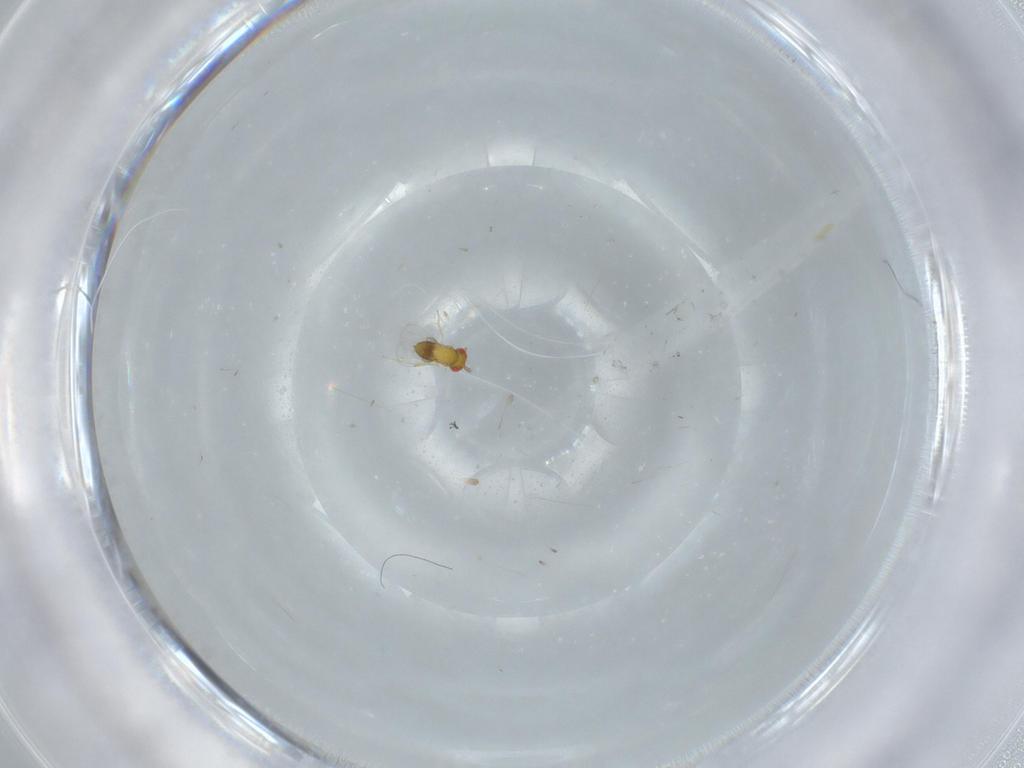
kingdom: Animalia
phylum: Arthropoda
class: Insecta
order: Hymenoptera
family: Trichogrammatidae
